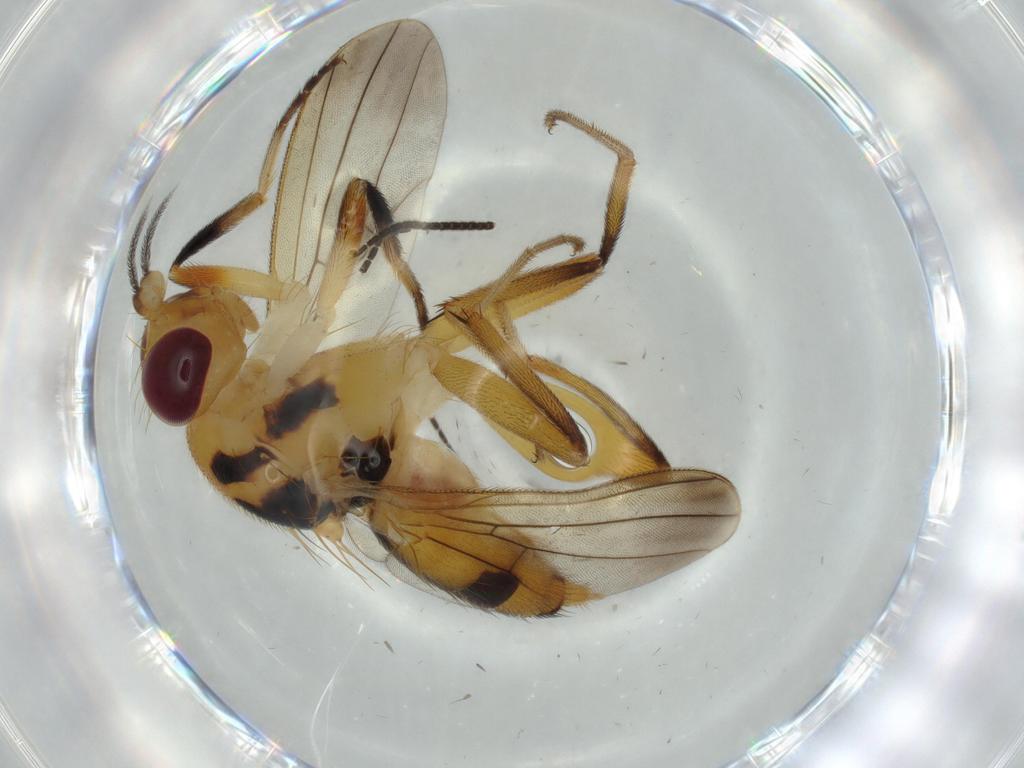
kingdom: Animalia
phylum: Arthropoda
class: Insecta
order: Diptera
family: Clusiidae
